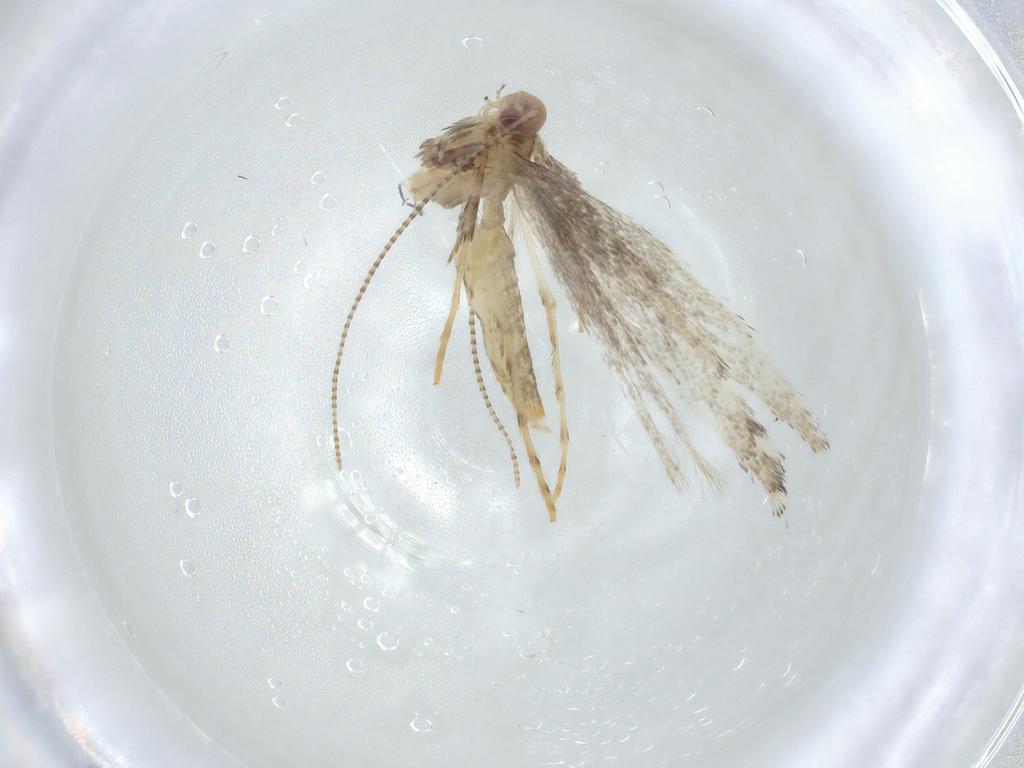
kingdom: Animalia
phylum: Arthropoda
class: Insecta
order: Lepidoptera
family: Gracillariidae
